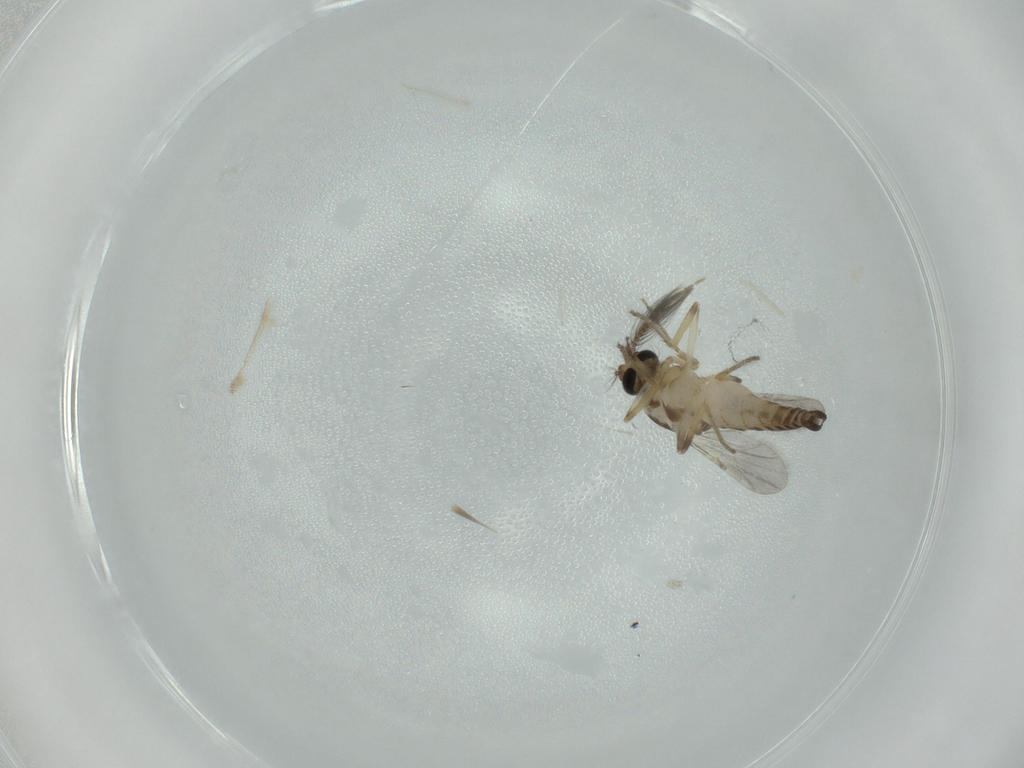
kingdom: Animalia
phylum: Arthropoda
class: Insecta
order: Diptera
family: Ceratopogonidae
